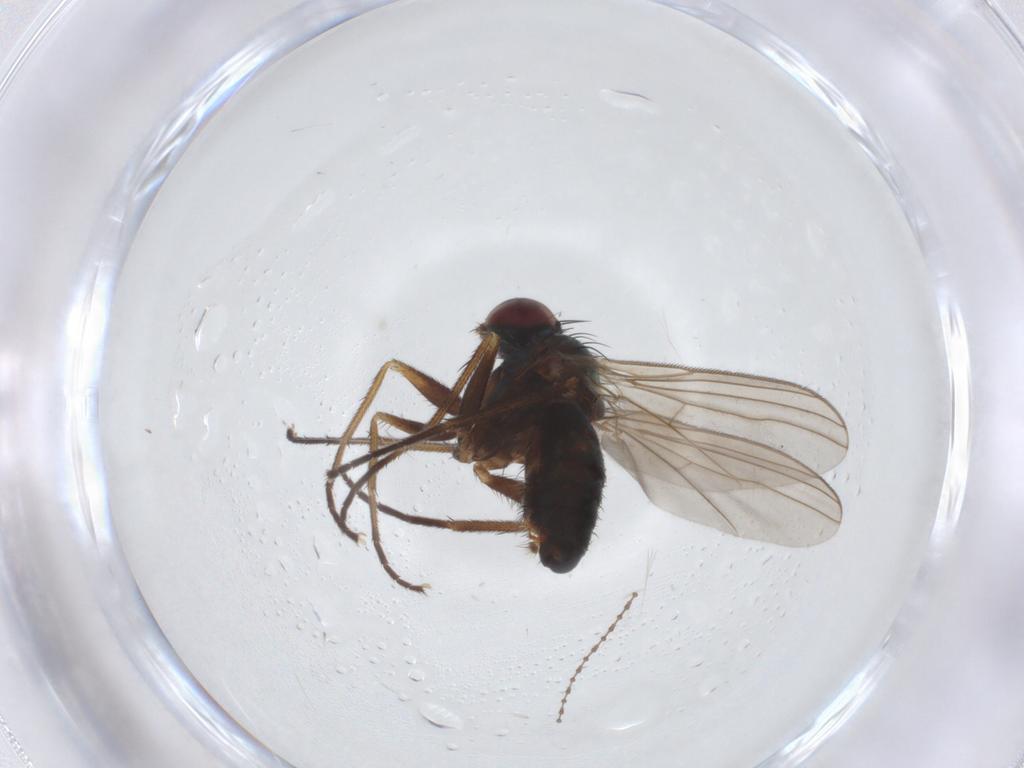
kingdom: Animalia
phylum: Arthropoda
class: Insecta
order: Diptera
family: Dolichopodidae
